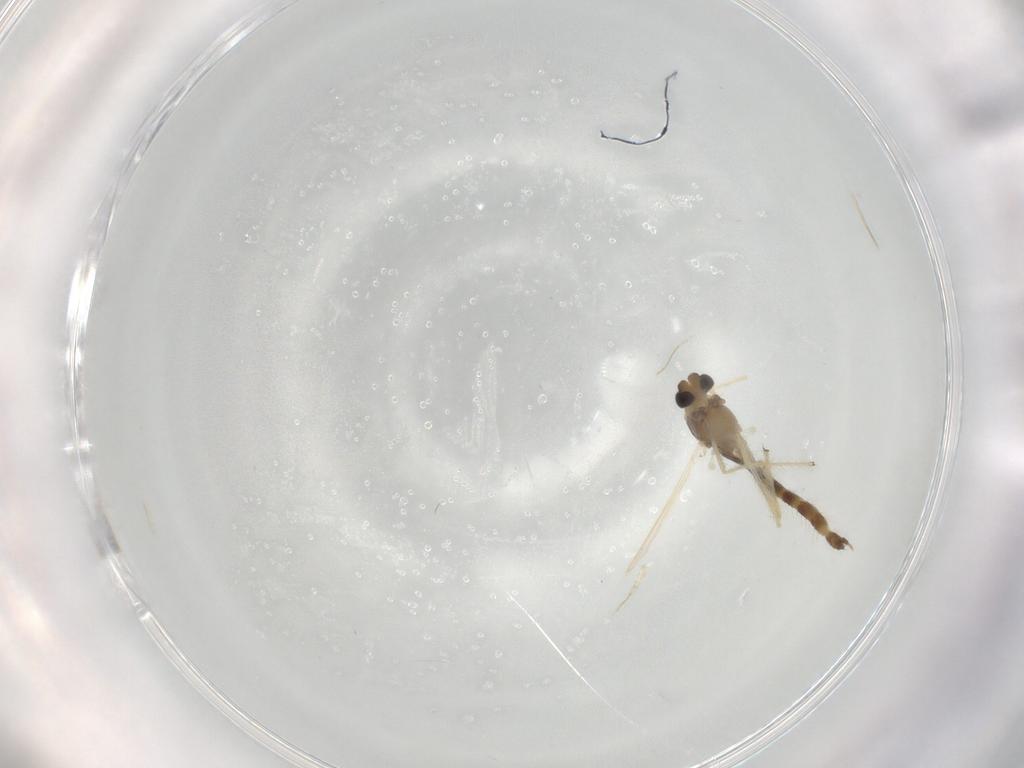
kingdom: Animalia
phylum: Arthropoda
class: Insecta
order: Diptera
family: Chironomidae
